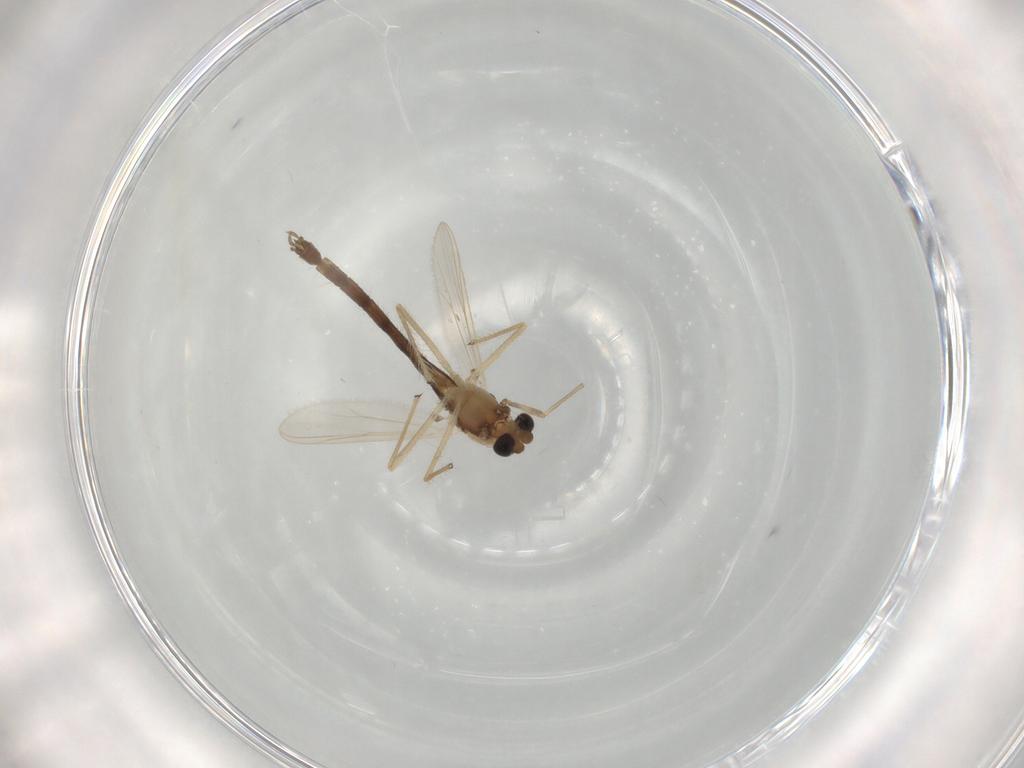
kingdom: Animalia
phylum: Arthropoda
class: Insecta
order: Diptera
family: Chironomidae
